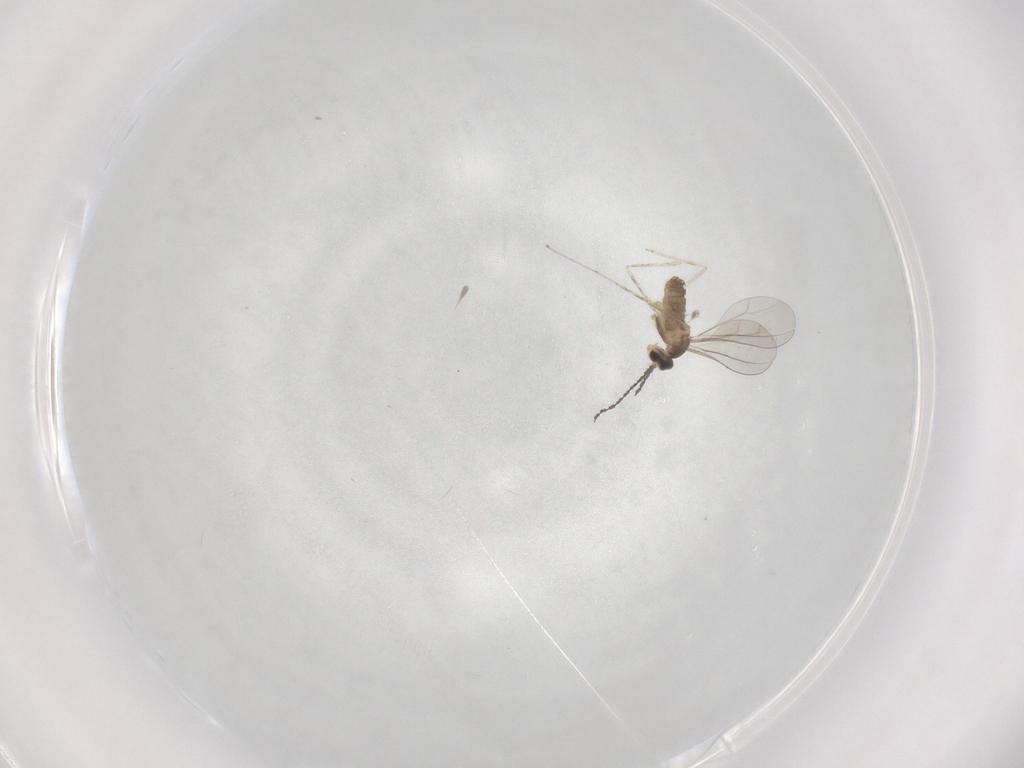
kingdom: Animalia
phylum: Arthropoda
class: Insecta
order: Diptera
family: Cecidomyiidae
